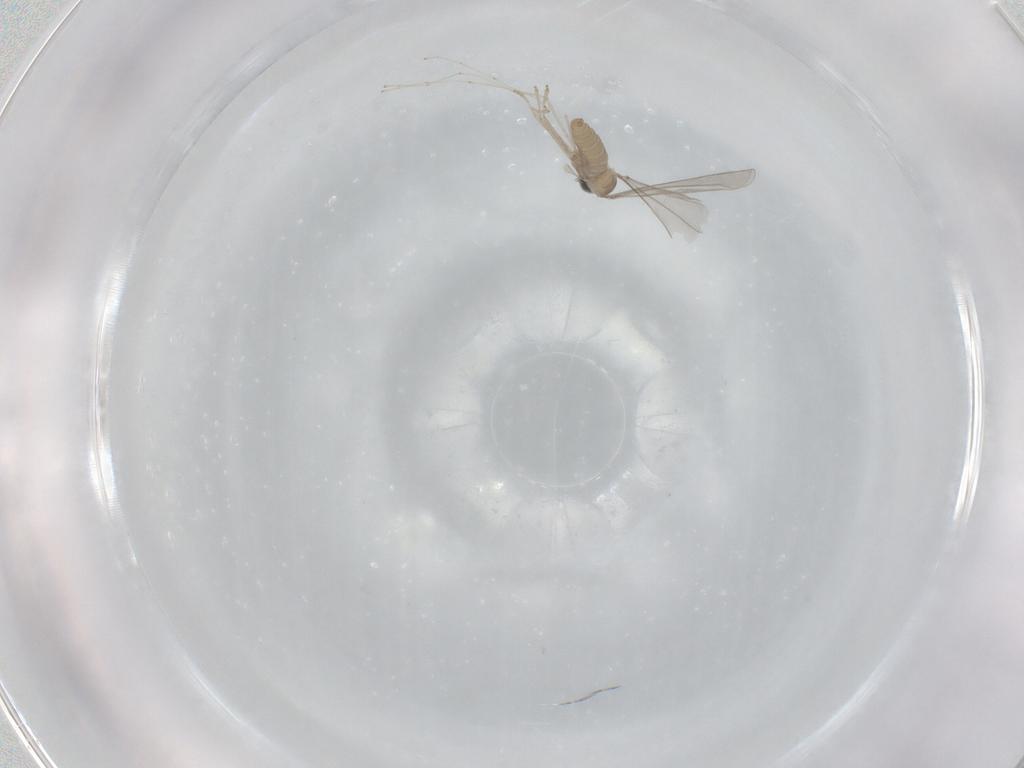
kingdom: Animalia
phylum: Arthropoda
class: Insecta
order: Diptera
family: Cecidomyiidae
